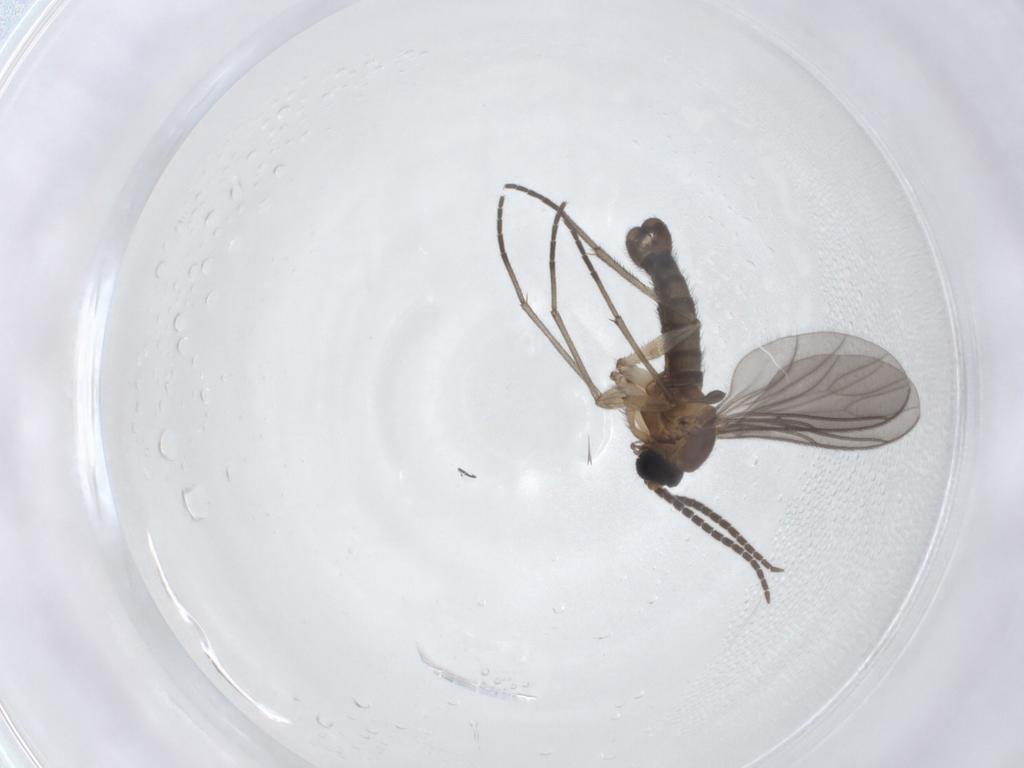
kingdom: Animalia
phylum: Arthropoda
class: Insecta
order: Diptera
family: Sciaridae
